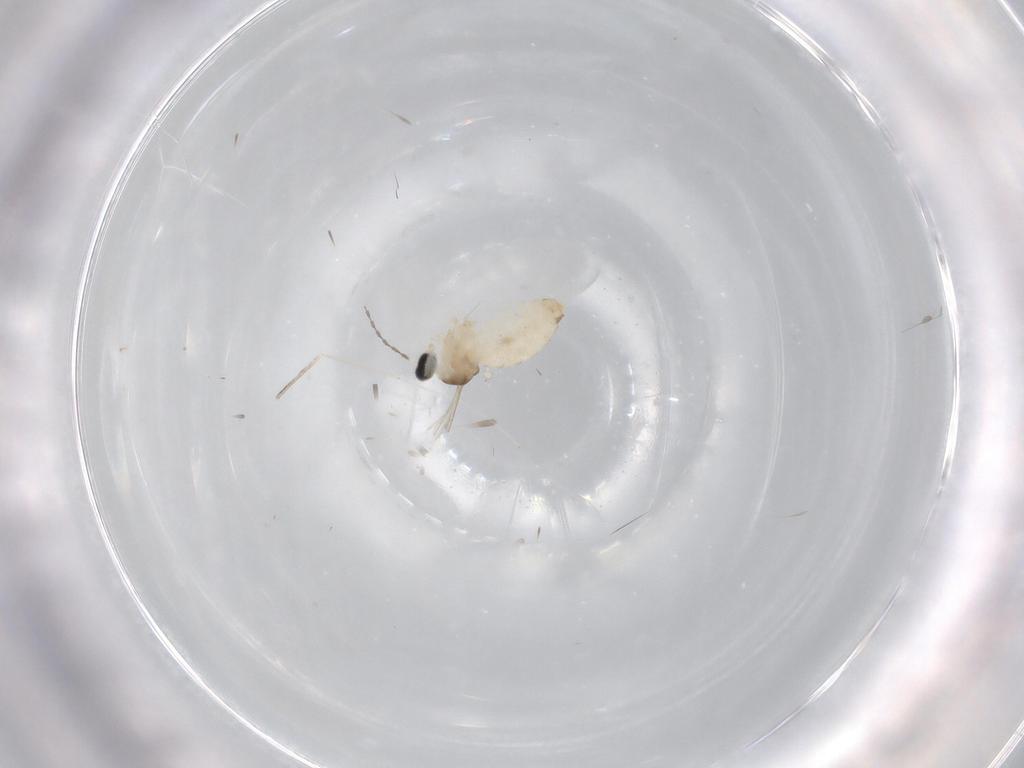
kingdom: Animalia
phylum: Arthropoda
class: Insecta
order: Diptera
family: Cecidomyiidae
